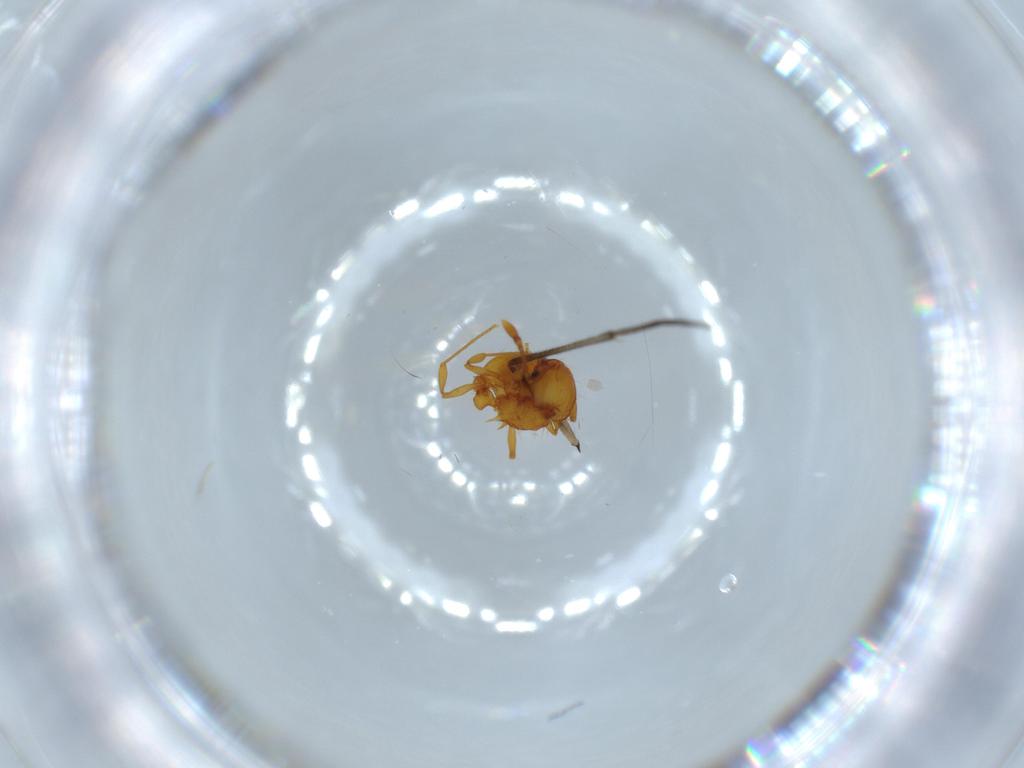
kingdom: Animalia
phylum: Arthropoda
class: Insecta
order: Hymenoptera
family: Formicidae
